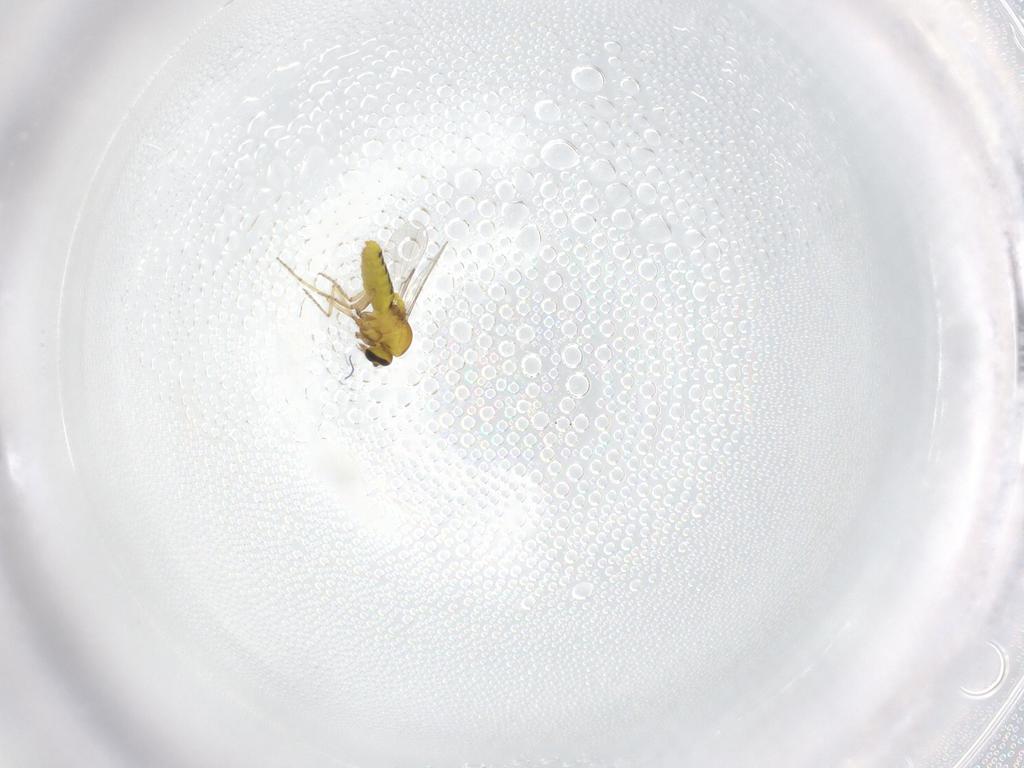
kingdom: Animalia
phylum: Arthropoda
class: Insecta
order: Diptera
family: Ceratopogonidae
